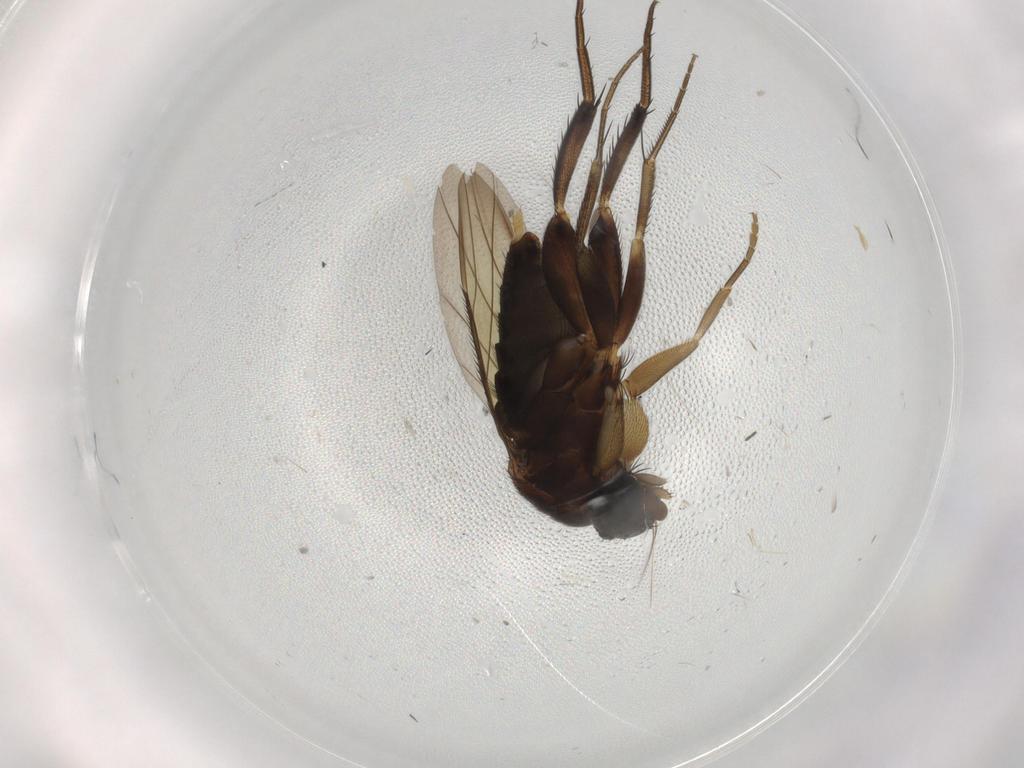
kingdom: Animalia
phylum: Arthropoda
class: Insecta
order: Diptera
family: Phoridae
